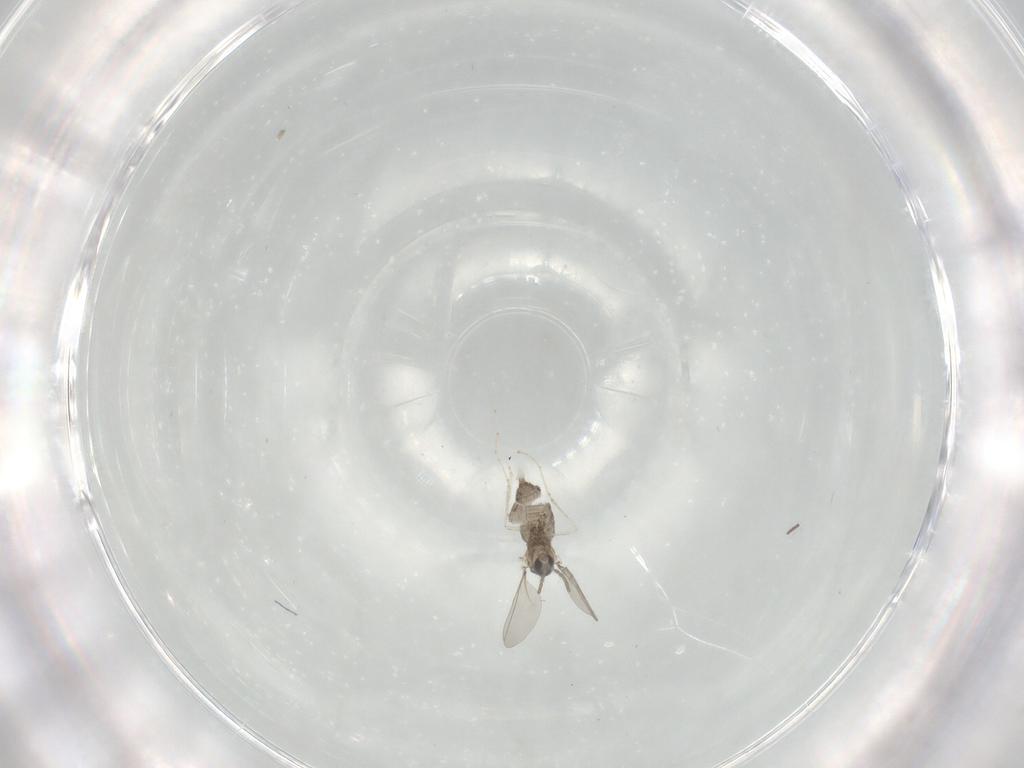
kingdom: Animalia
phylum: Arthropoda
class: Insecta
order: Diptera
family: Cecidomyiidae
